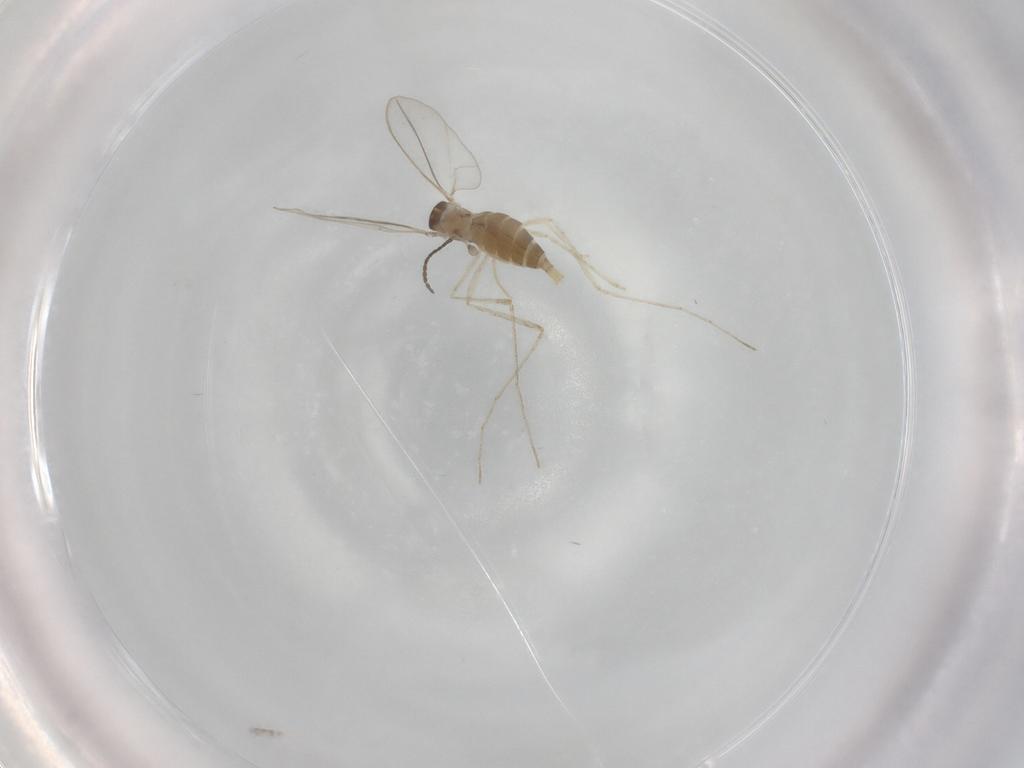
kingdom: Animalia
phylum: Arthropoda
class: Insecta
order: Diptera
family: Cecidomyiidae
